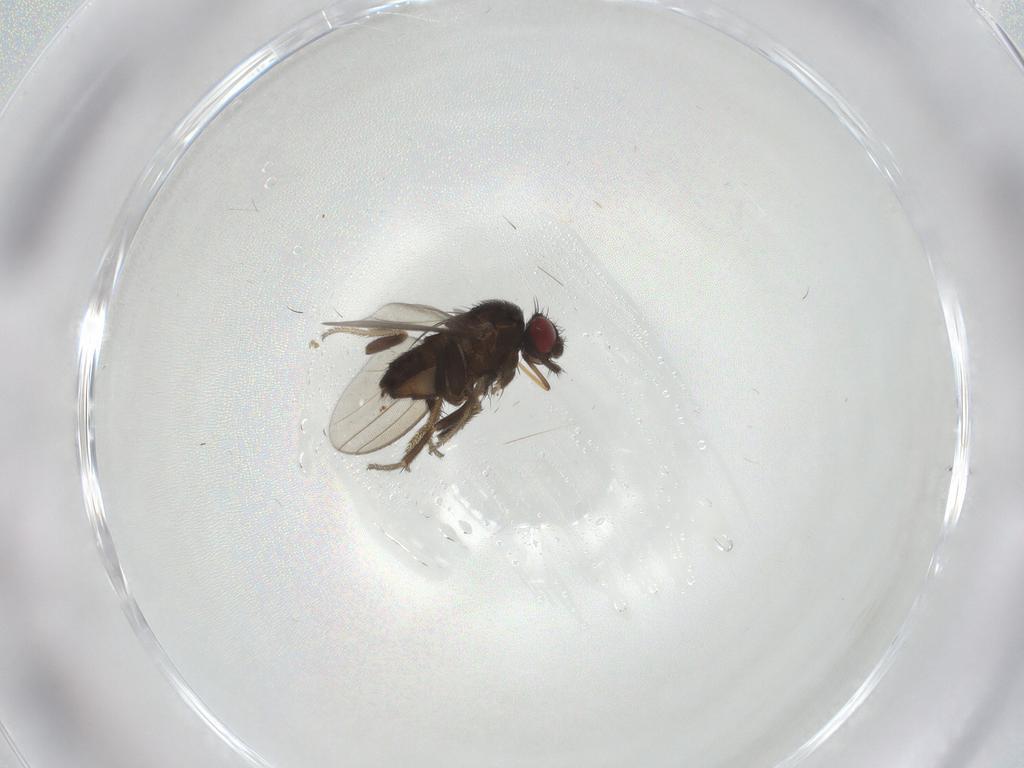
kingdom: Animalia
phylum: Arthropoda
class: Insecta
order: Diptera
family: Milichiidae
